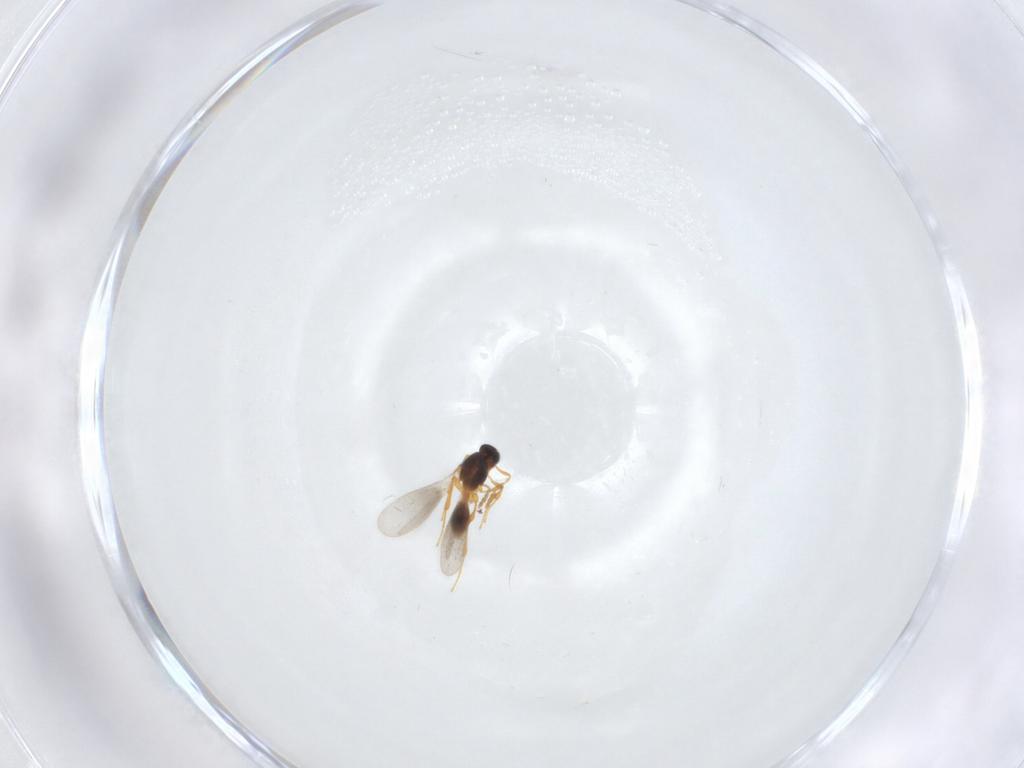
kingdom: Animalia
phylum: Arthropoda
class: Insecta
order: Hymenoptera
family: Platygastridae
